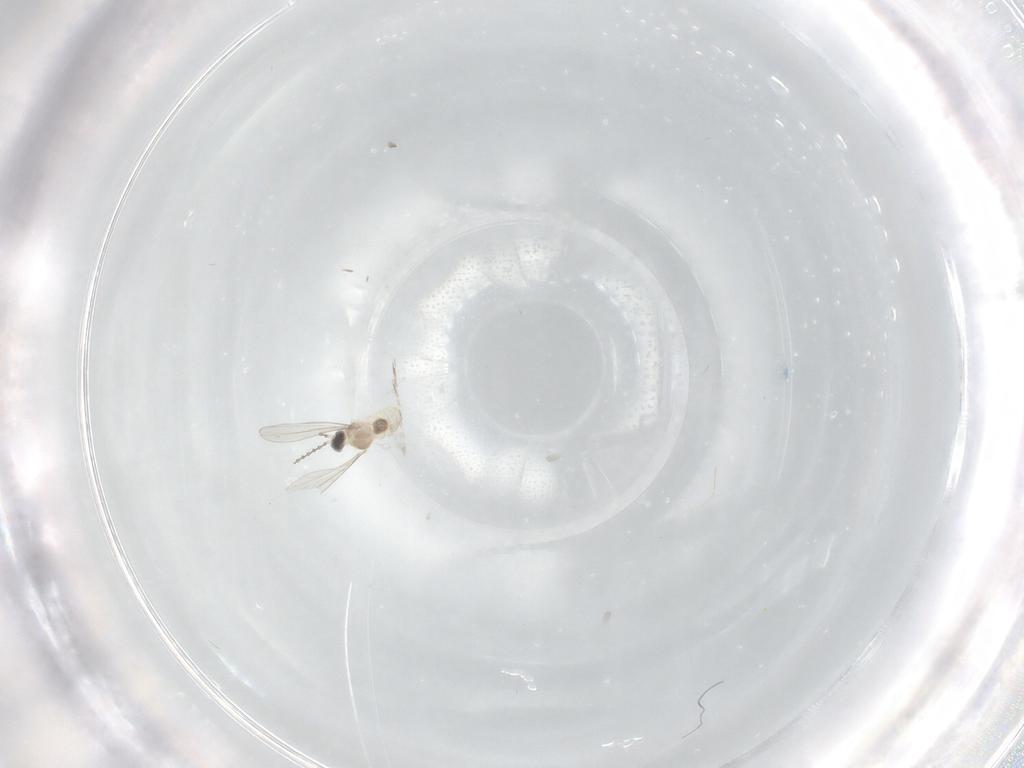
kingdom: Animalia
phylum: Arthropoda
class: Insecta
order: Diptera
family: Cecidomyiidae
